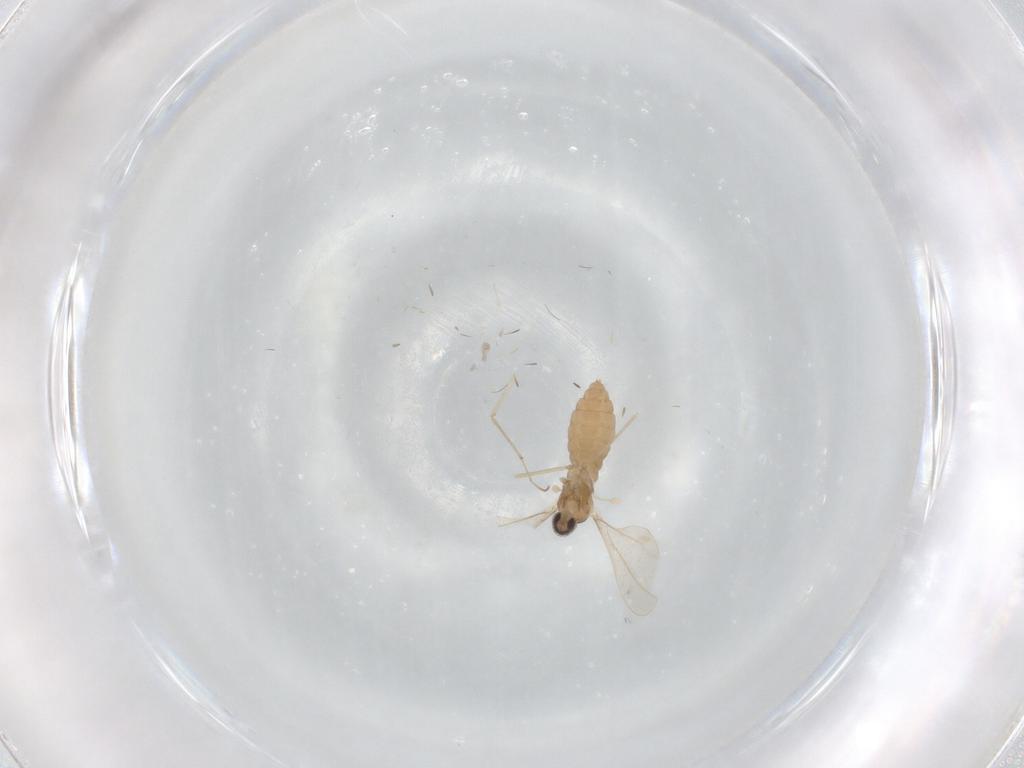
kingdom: Animalia
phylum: Arthropoda
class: Insecta
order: Diptera
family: Cecidomyiidae
